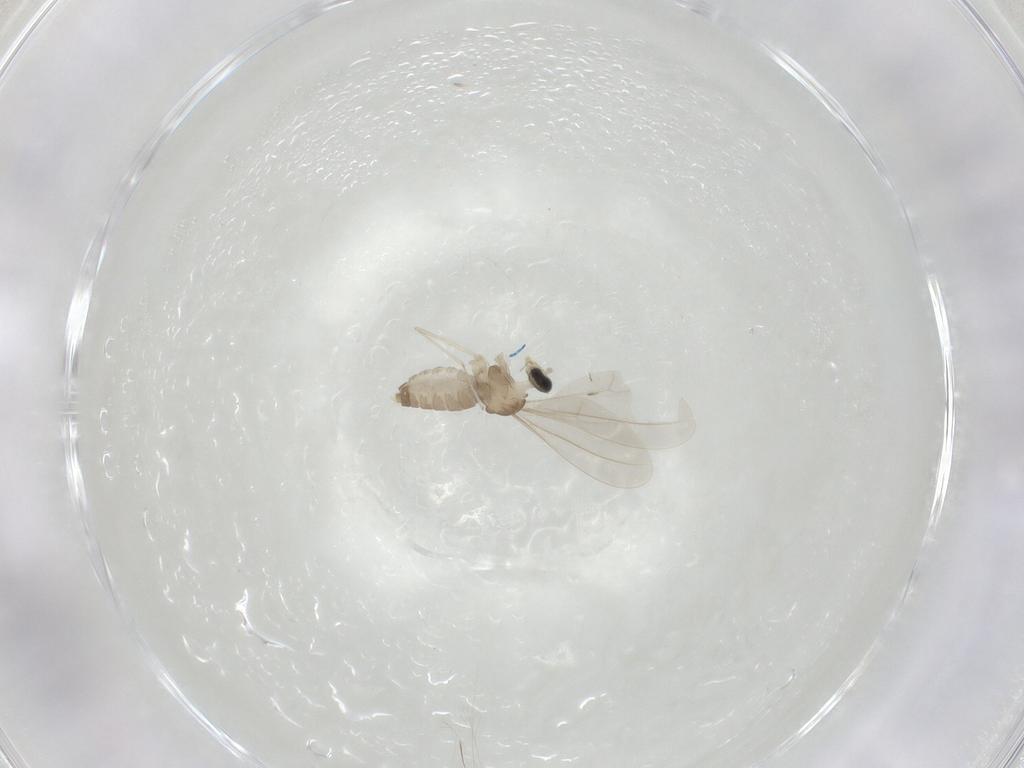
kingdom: Animalia
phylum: Arthropoda
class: Insecta
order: Diptera
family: Cecidomyiidae
